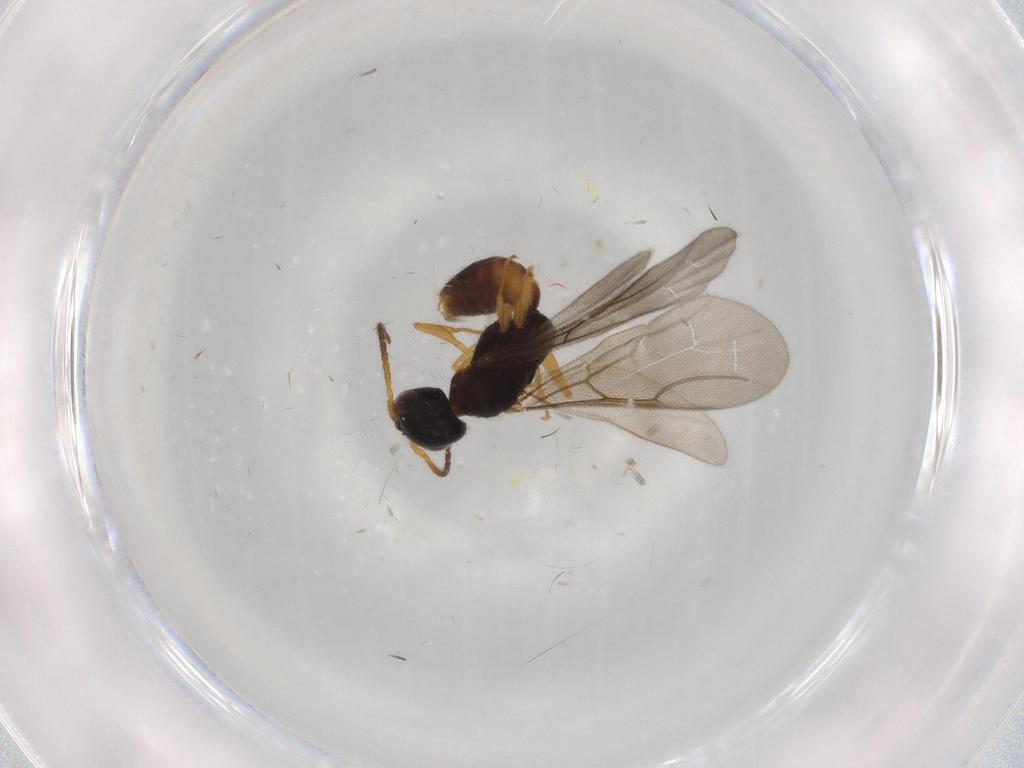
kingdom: Animalia
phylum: Arthropoda
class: Insecta
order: Hymenoptera
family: Bethylidae
